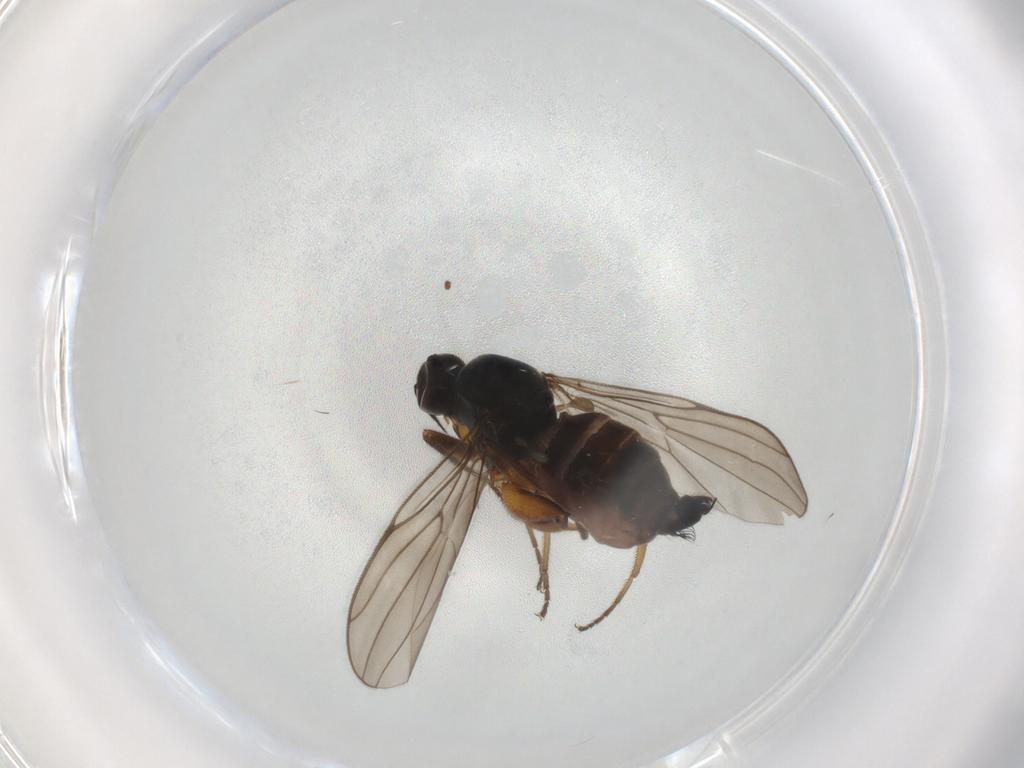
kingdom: Animalia
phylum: Arthropoda
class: Insecta
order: Diptera
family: Hybotidae
